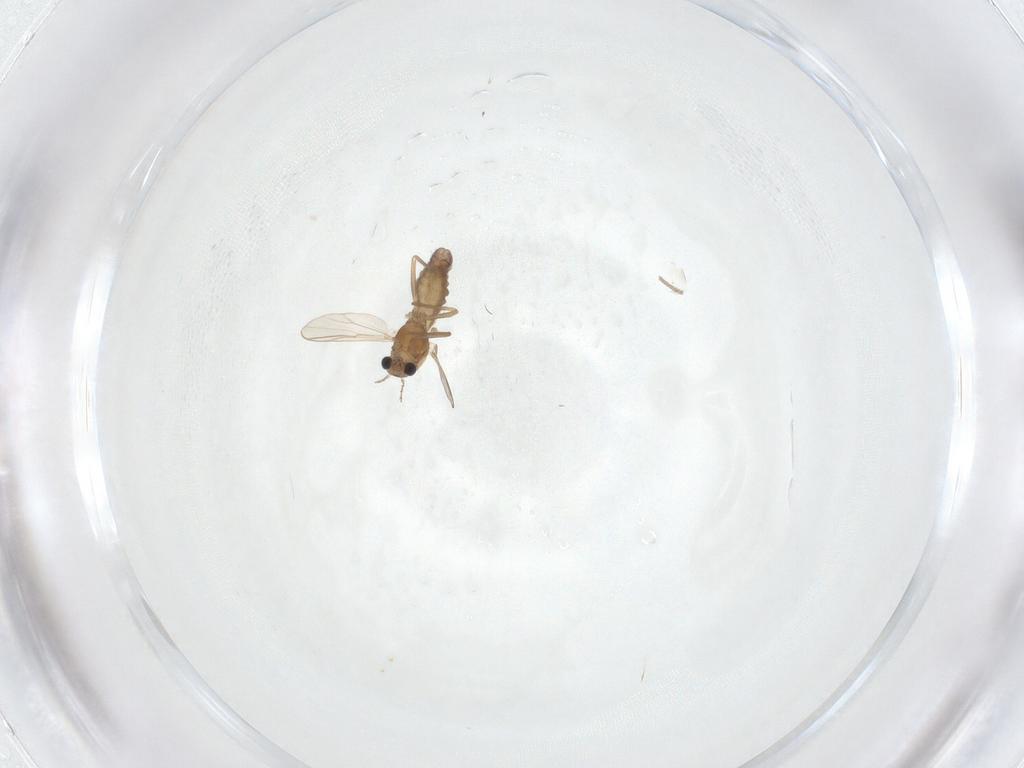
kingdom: Animalia
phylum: Arthropoda
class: Insecta
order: Diptera
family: Chironomidae
